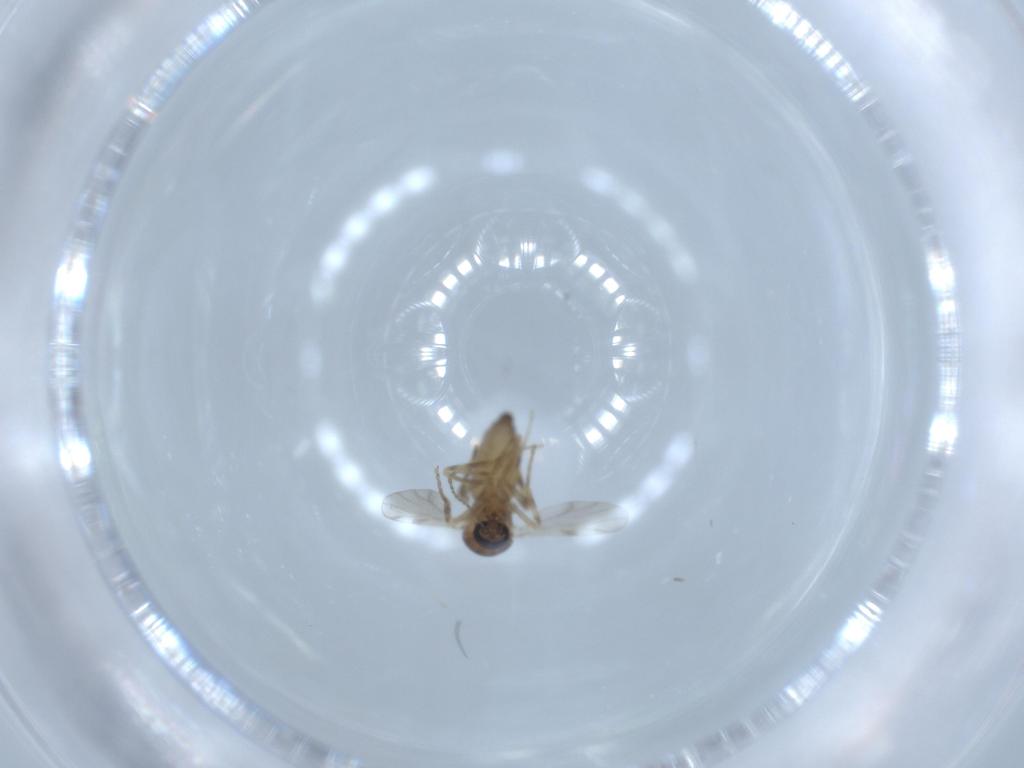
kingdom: Animalia
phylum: Arthropoda
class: Insecta
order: Diptera
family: Ceratopogonidae
